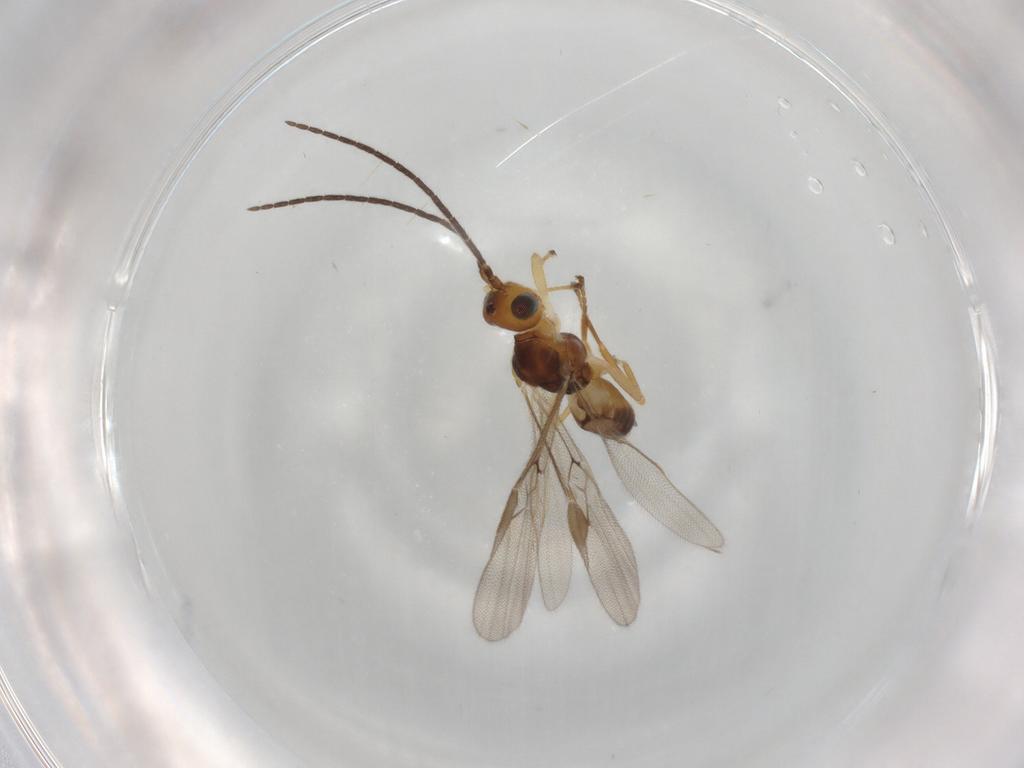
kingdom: Animalia
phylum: Arthropoda
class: Insecta
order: Hymenoptera
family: Braconidae
